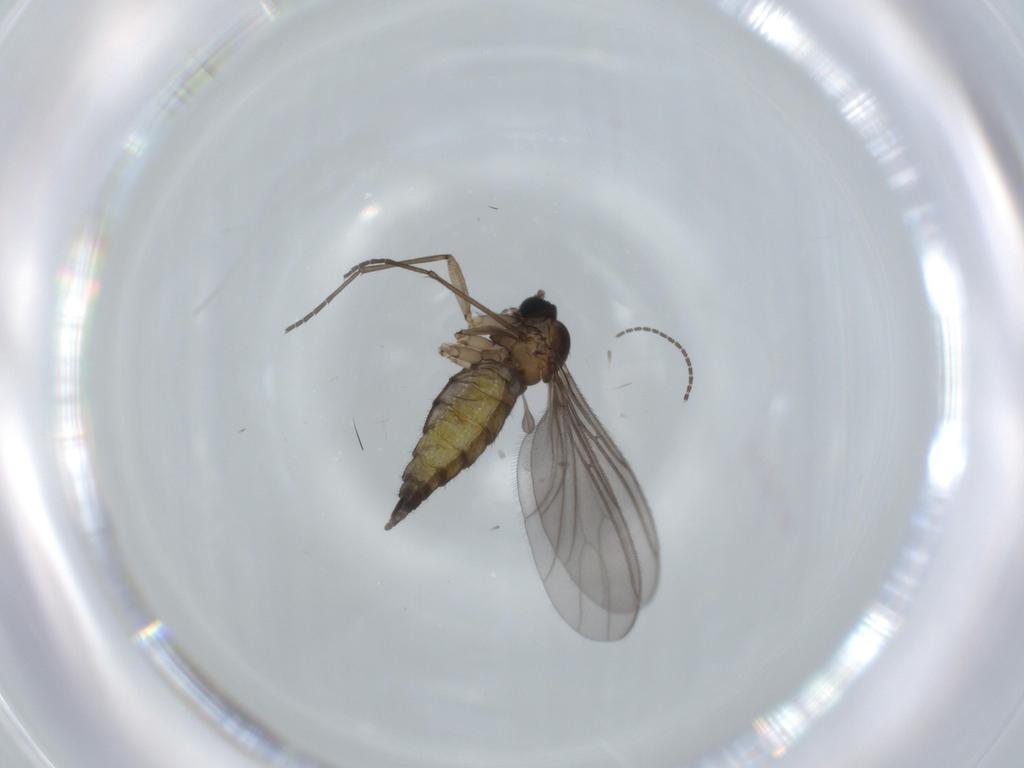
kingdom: Animalia
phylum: Arthropoda
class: Insecta
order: Diptera
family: Sciaridae
